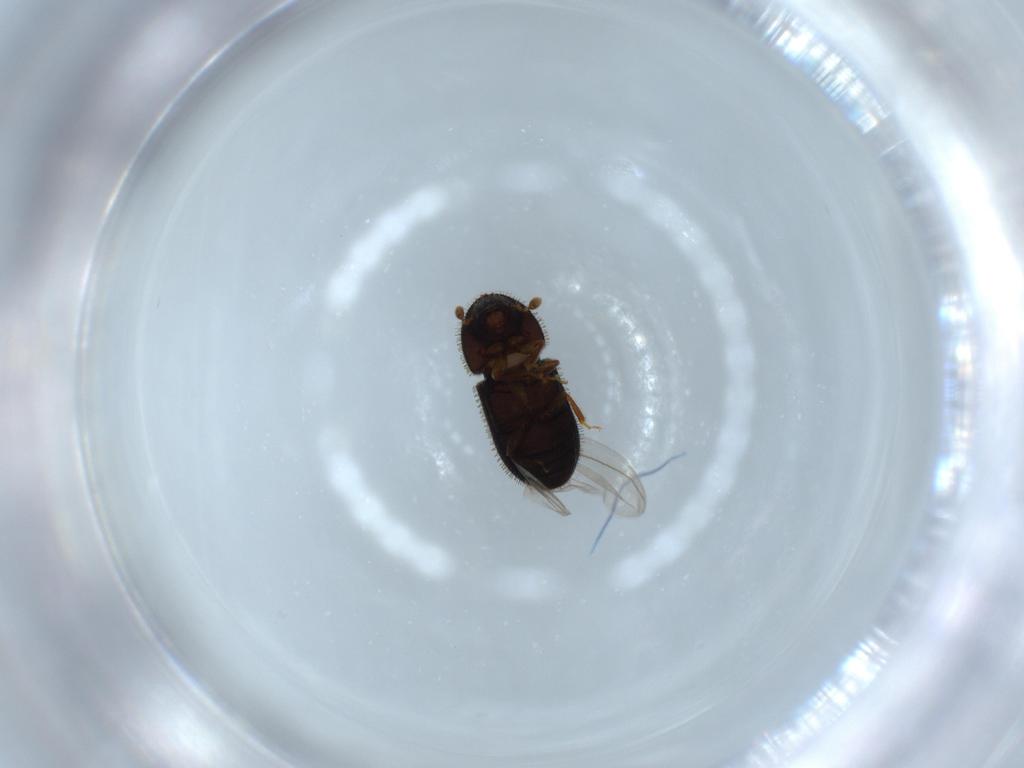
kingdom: Animalia
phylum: Arthropoda
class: Insecta
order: Coleoptera
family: Curculionidae
